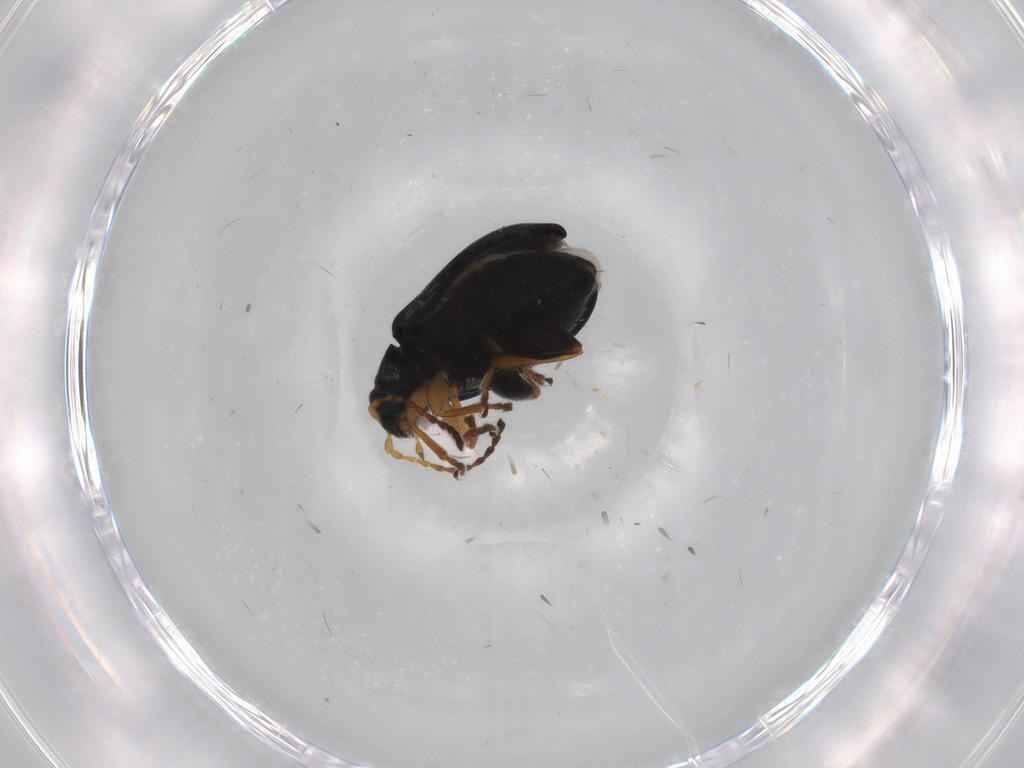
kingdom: Animalia
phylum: Arthropoda
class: Insecta
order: Coleoptera
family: Chrysomelidae
